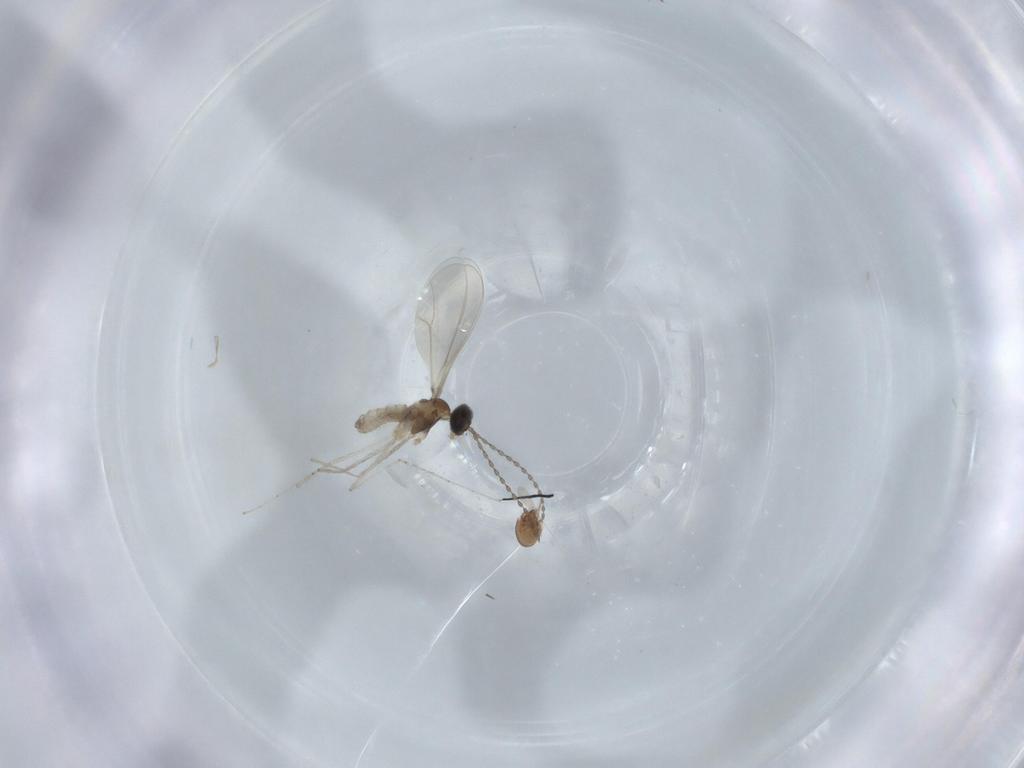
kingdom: Animalia
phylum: Arthropoda
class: Insecta
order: Diptera
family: Cecidomyiidae
